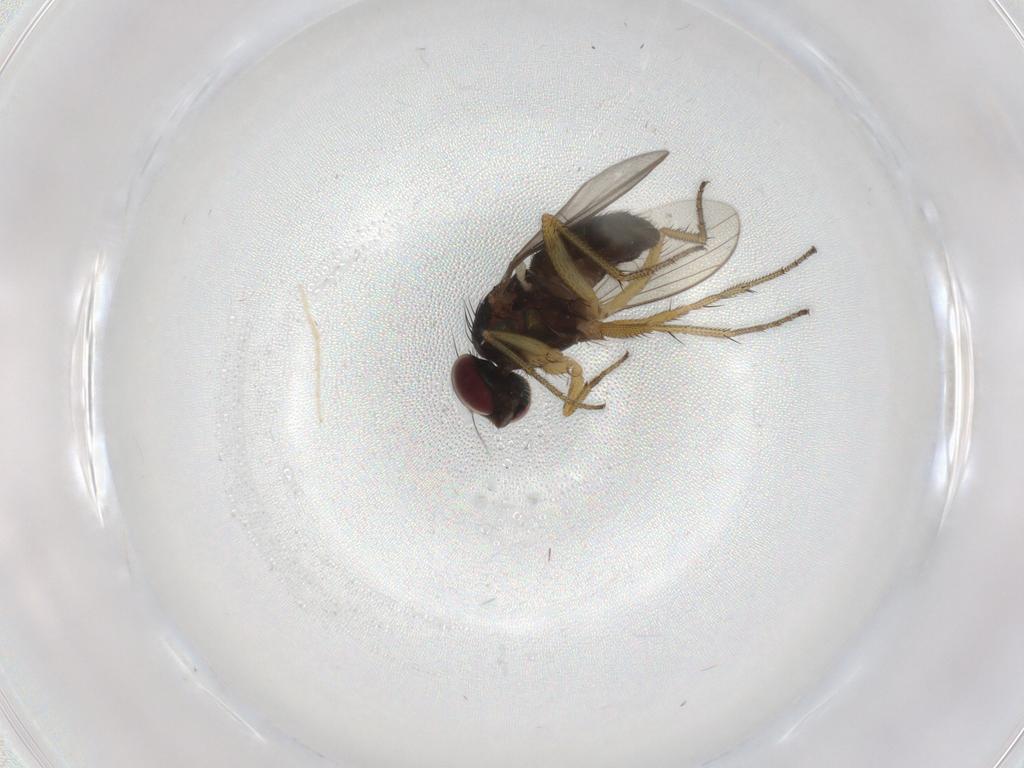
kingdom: Animalia
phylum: Arthropoda
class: Insecta
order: Diptera
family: Chironomidae
